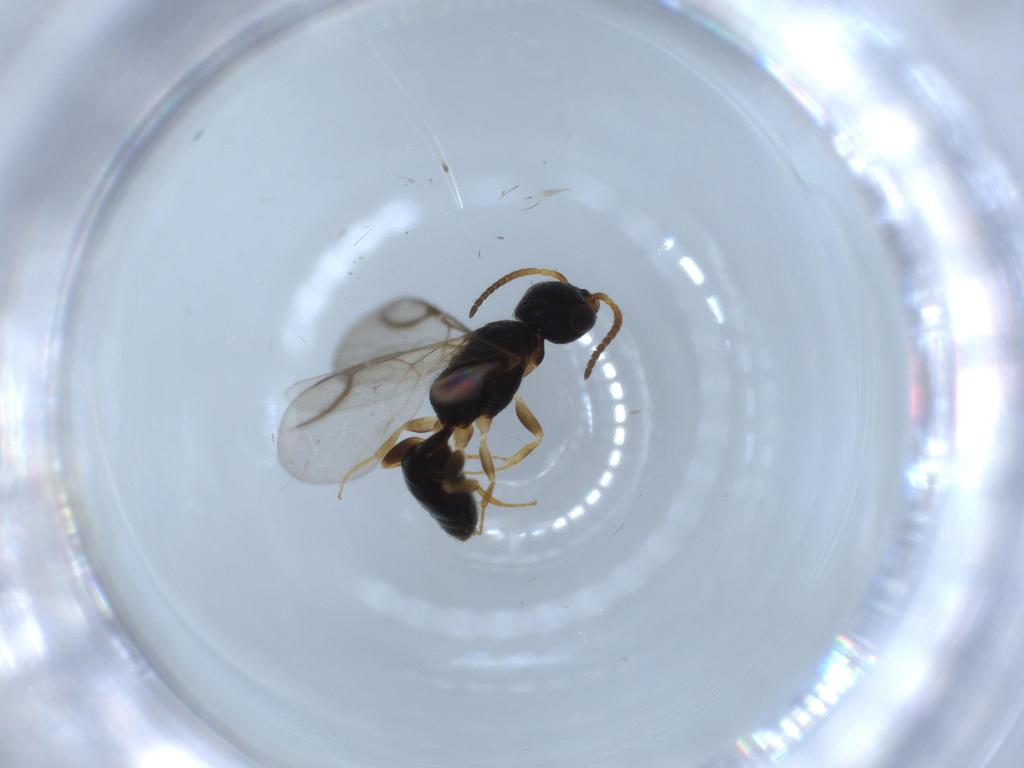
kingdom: Animalia
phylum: Arthropoda
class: Insecta
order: Hymenoptera
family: Bethylidae
